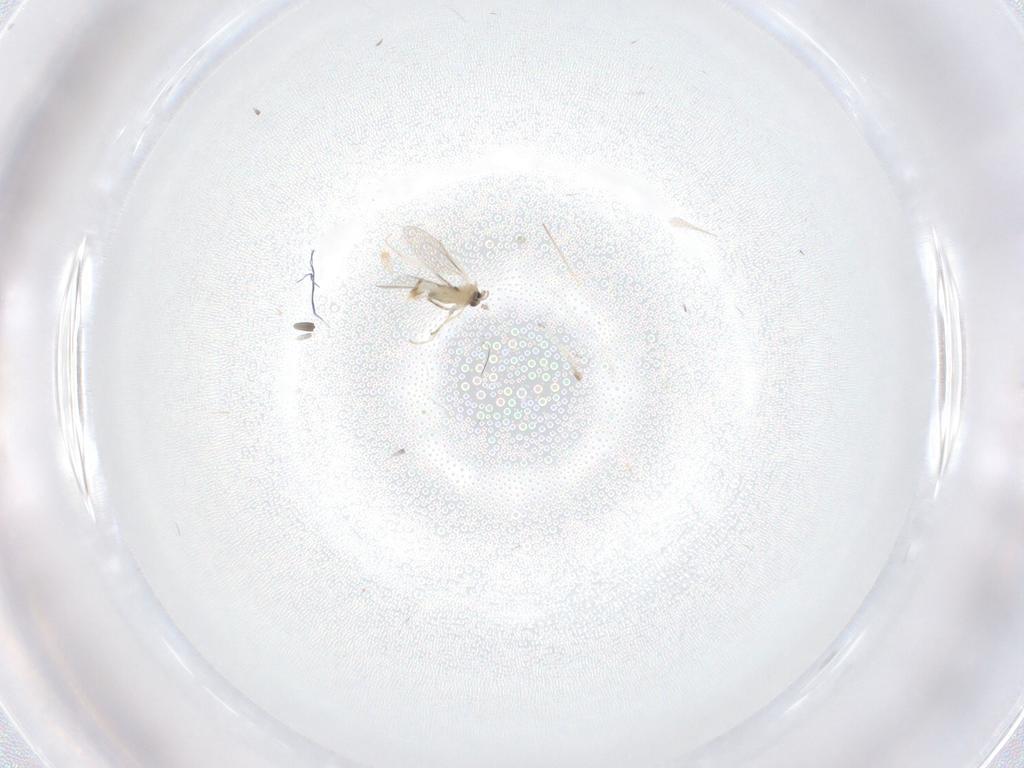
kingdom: Animalia
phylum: Arthropoda
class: Insecta
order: Diptera
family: Cecidomyiidae
